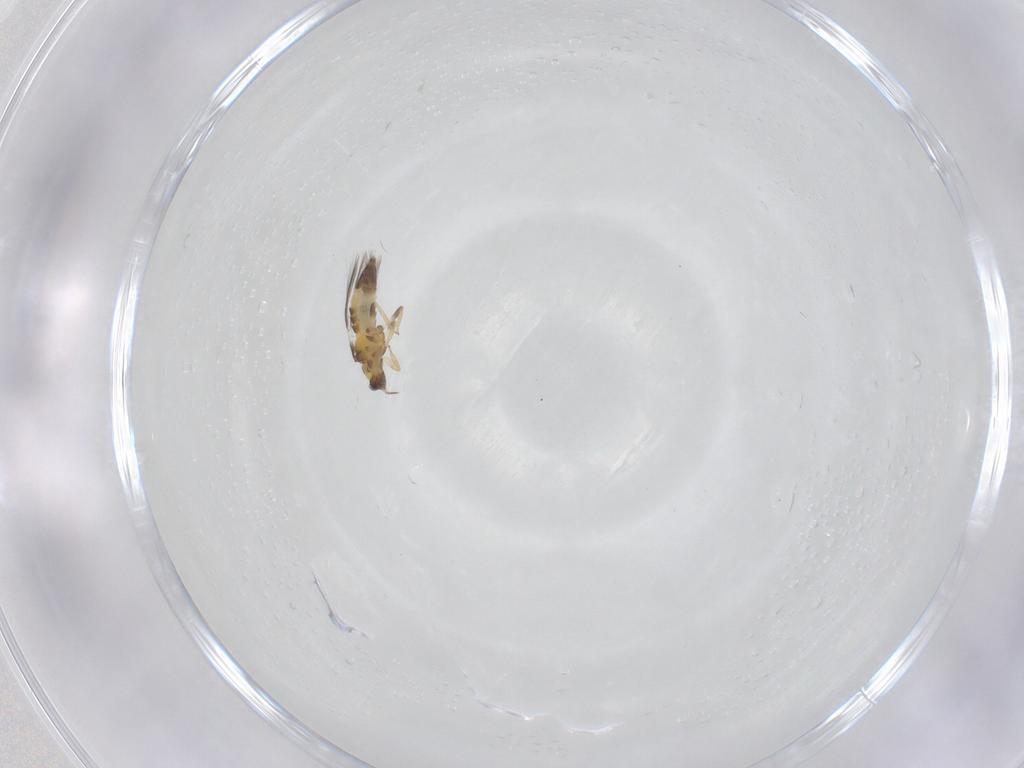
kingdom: Animalia
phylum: Arthropoda
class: Insecta
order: Thysanoptera
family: Thripidae
